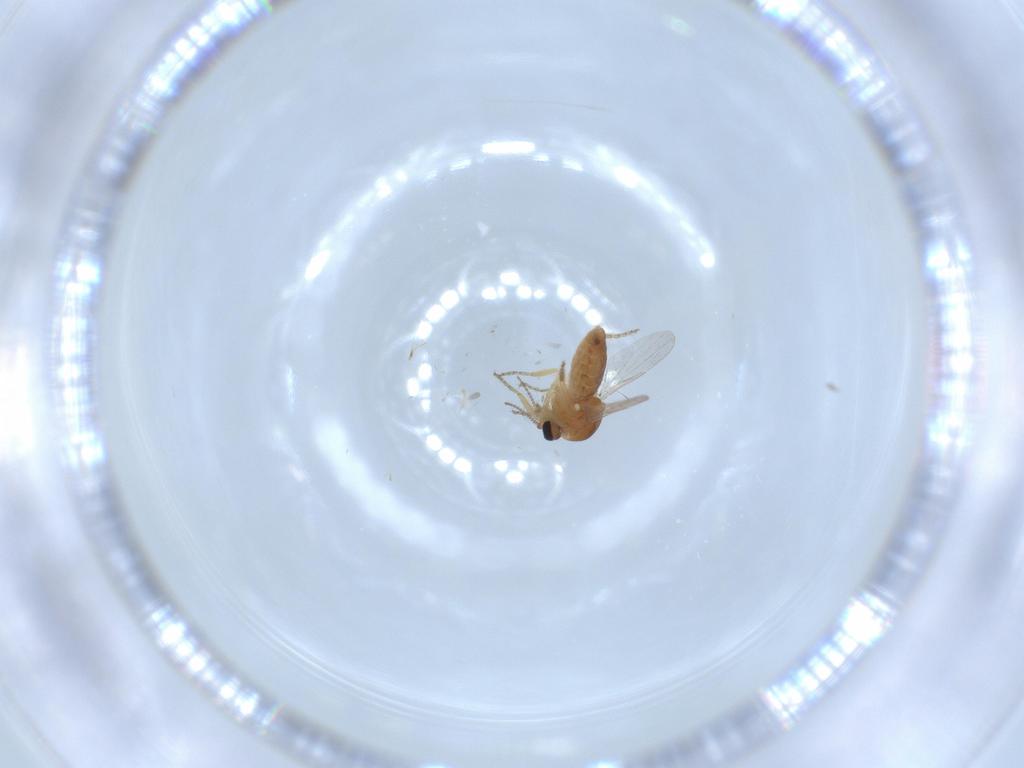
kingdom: Animalia
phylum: Arthropoda
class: Insecta
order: Diptera
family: Ceratopogonidae
